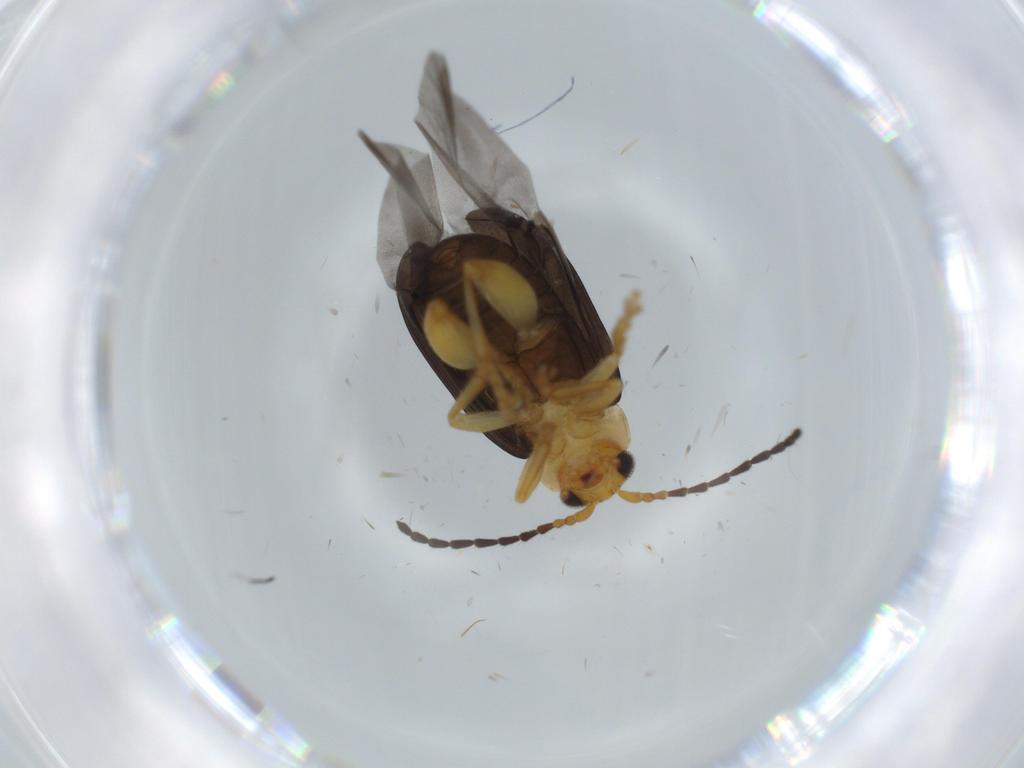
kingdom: Animalia
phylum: Arthropoda
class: Insecta
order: Coleoptera
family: Chrysomelidae
